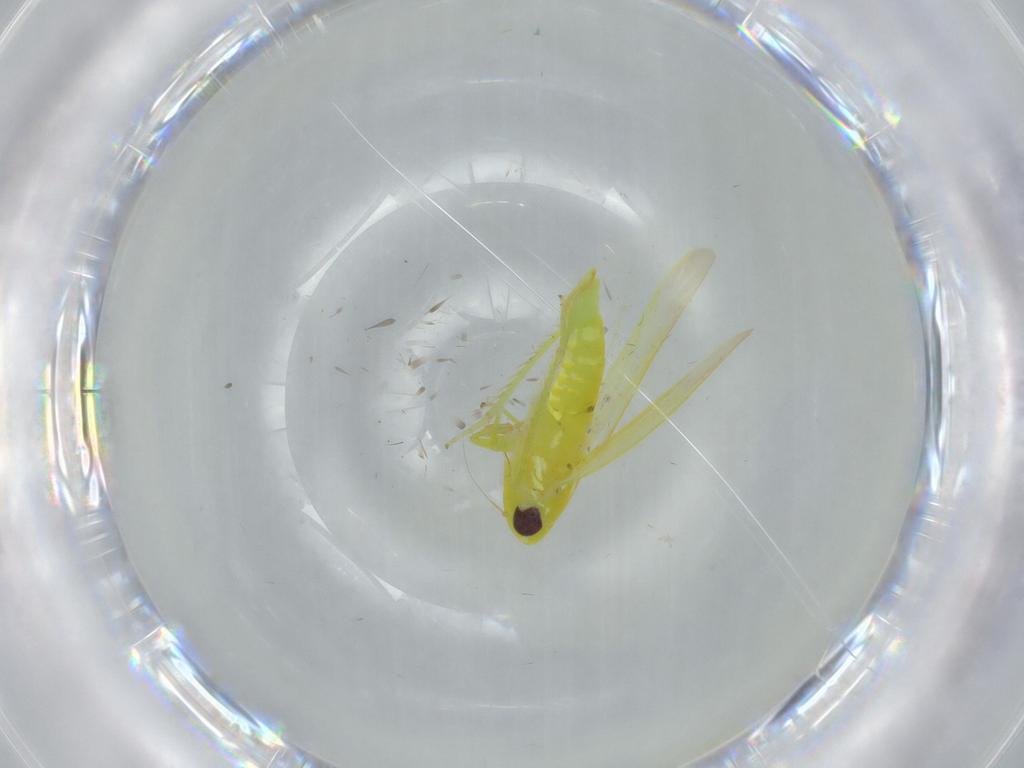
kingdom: Animalia
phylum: Arthropoda
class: Insecta
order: Hemiptera
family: Cicadellidae
